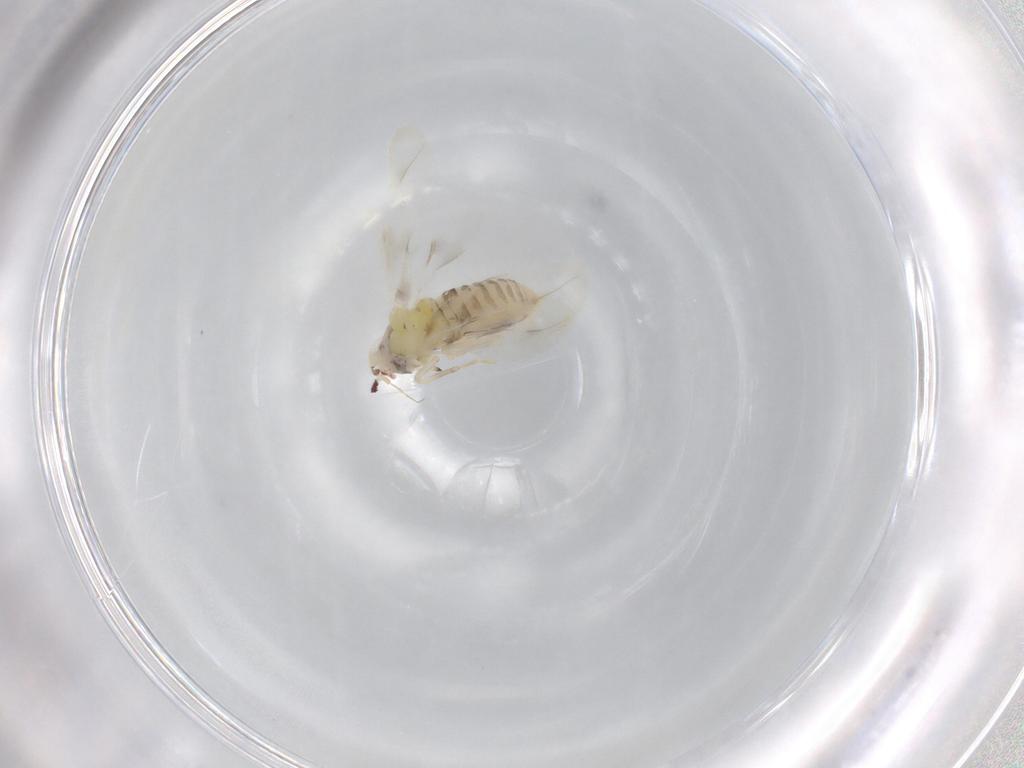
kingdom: Animalia
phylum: Arthropoda
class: Insecta
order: Hemiptera
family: Aleyrodidae
